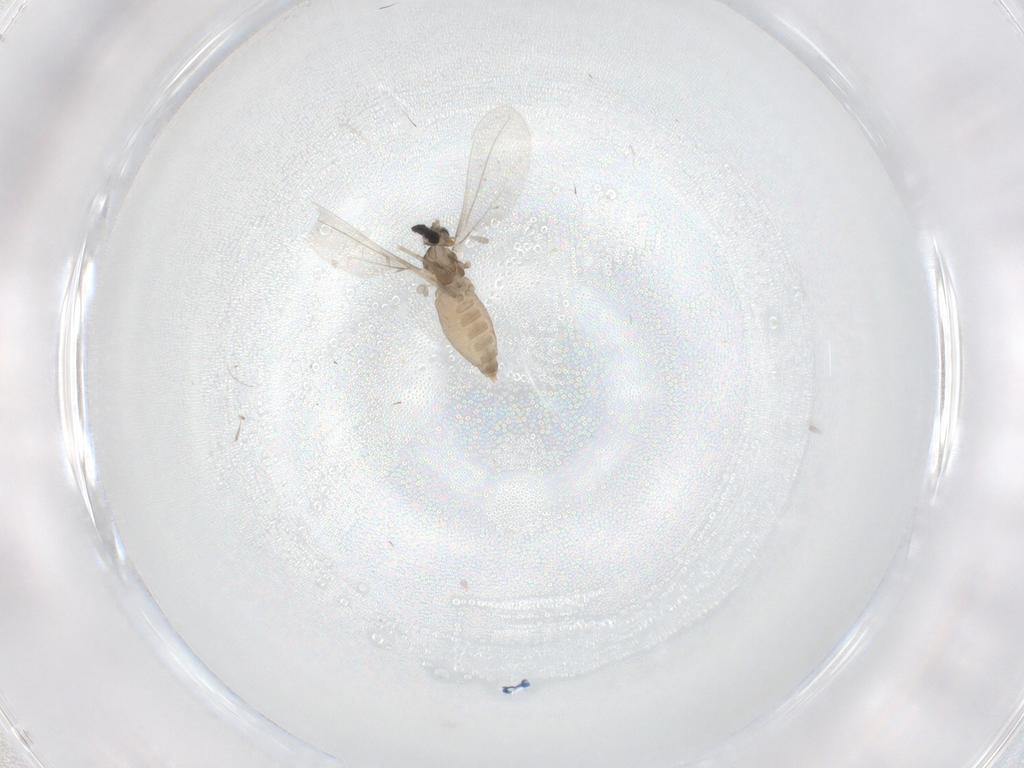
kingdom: Animalia
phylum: Arthropoda
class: Insecta
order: Diptera
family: Cecidomyiidae
